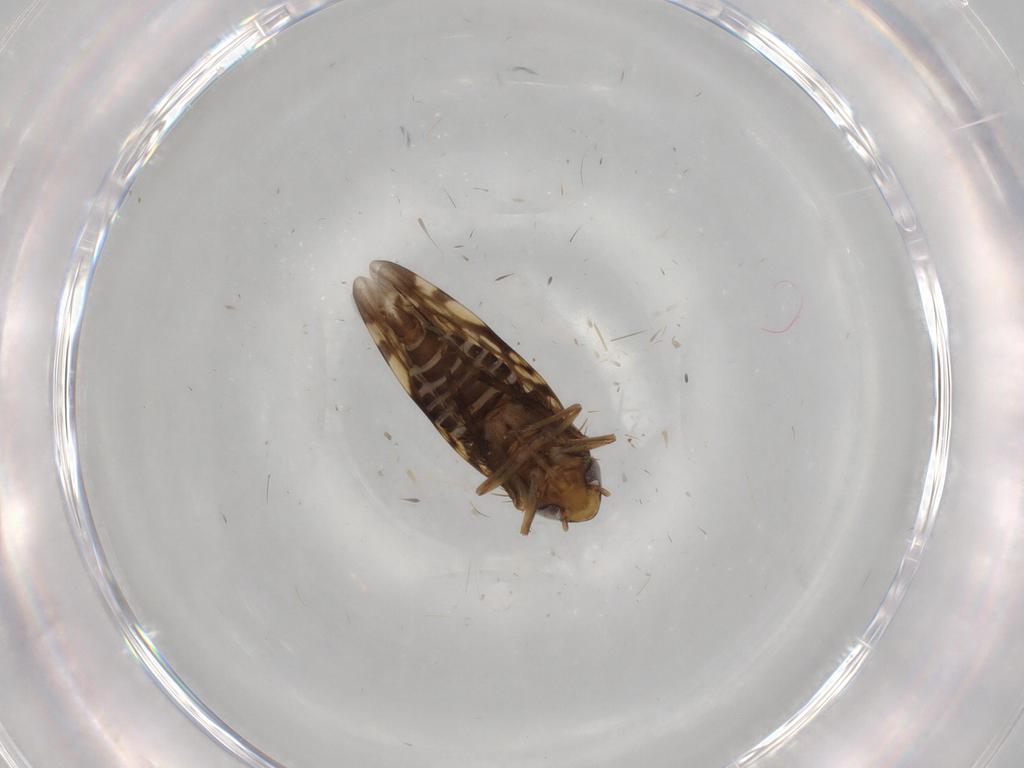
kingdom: Animalia
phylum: Arthropoda
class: Insecta
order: Hemiptera
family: Cicadellidae
